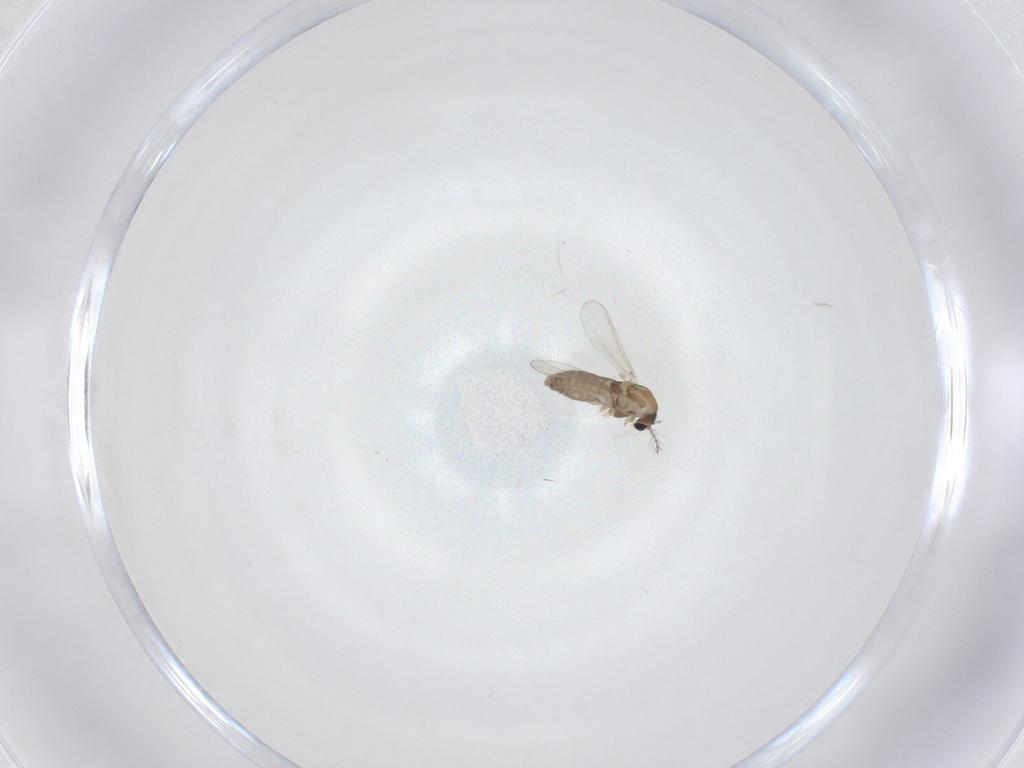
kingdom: Animalia
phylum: Arthropoda
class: Insecta
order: Diptera
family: Chironomidae
